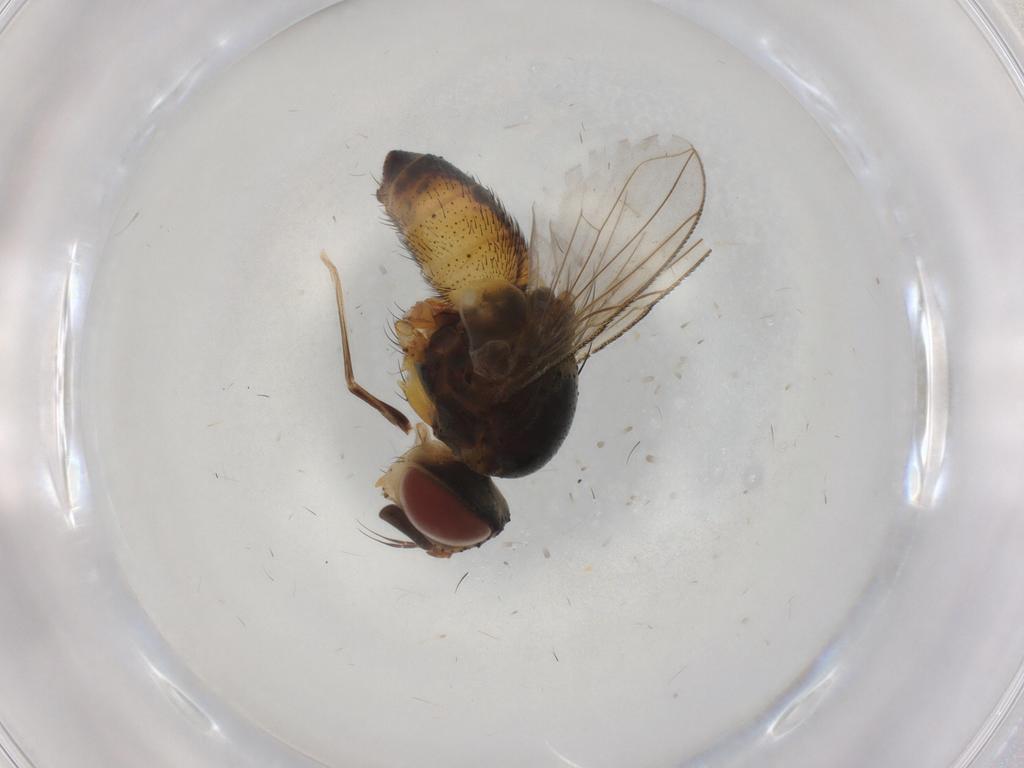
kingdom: Animalia
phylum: Arthropoda
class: Insecta
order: Diptera
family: Tachinidae
